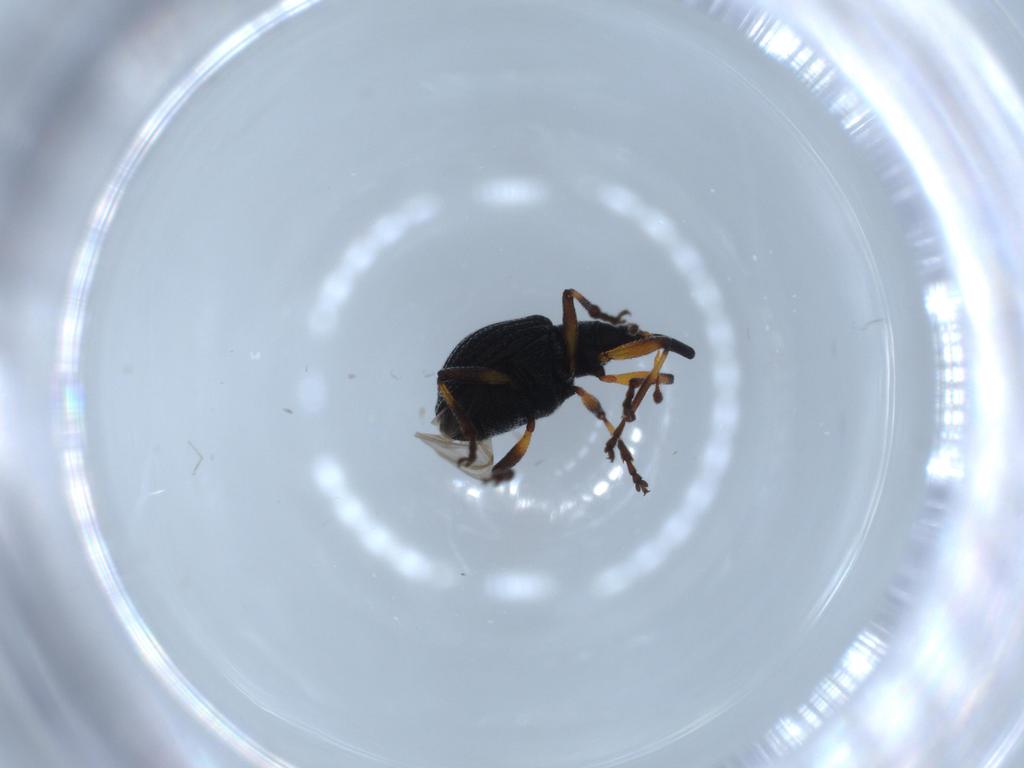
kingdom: Animalia
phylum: Arthropoda
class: Insecta
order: Coleoptera
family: Brentidae
